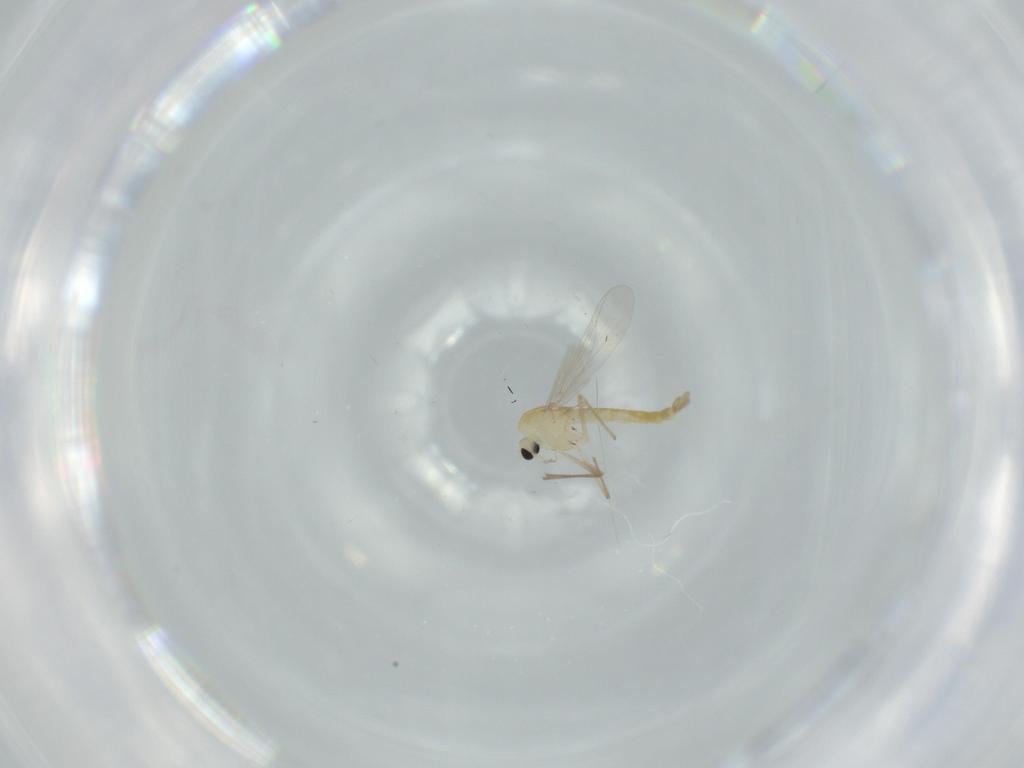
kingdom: Animalia
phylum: Arthropoda
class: Insecta
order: Diptera
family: Chironomidae
